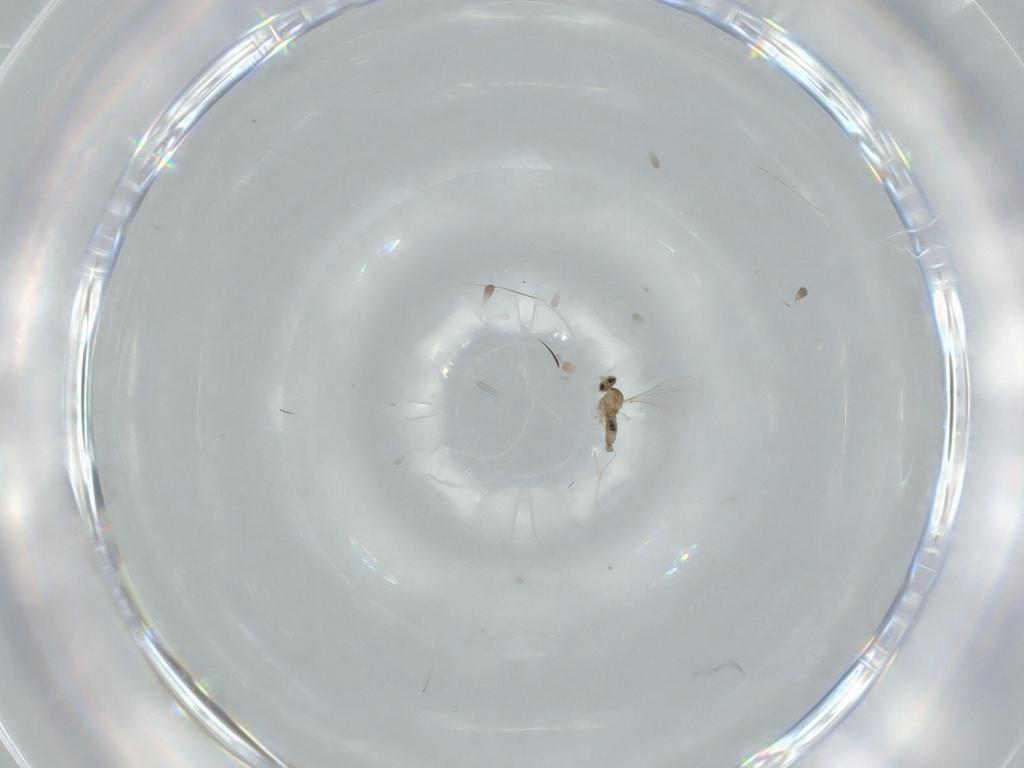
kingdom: Animalia
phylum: Arthropoda
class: Insecta
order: Diptera
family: Cecidomyiidae
